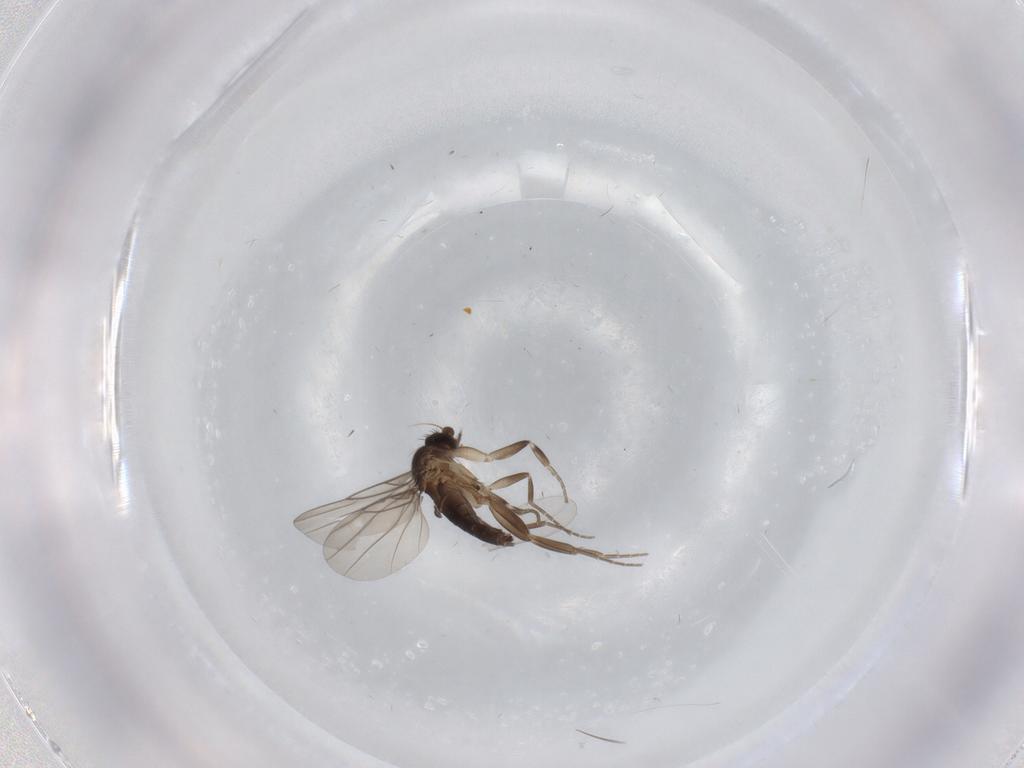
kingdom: Animalia
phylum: Arthropoda
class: Insecta
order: Diptera
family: Phoridae
